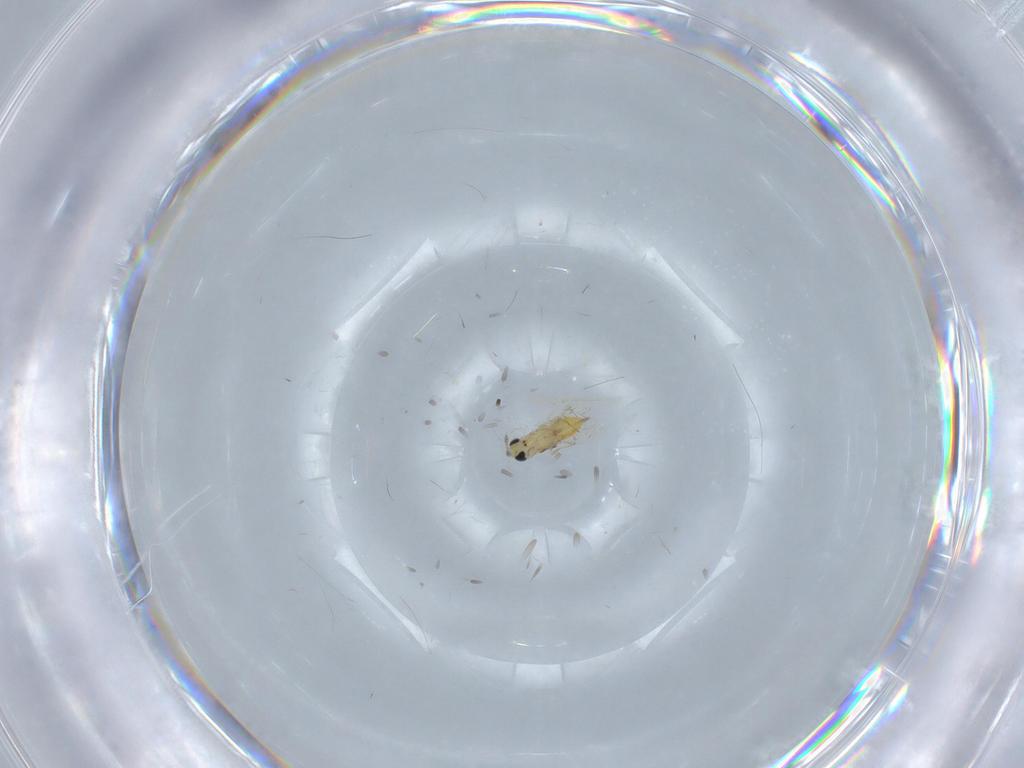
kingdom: Animalia
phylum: Arthropoda
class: Insecta
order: Hymenoptera
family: Trichogrammatidae
